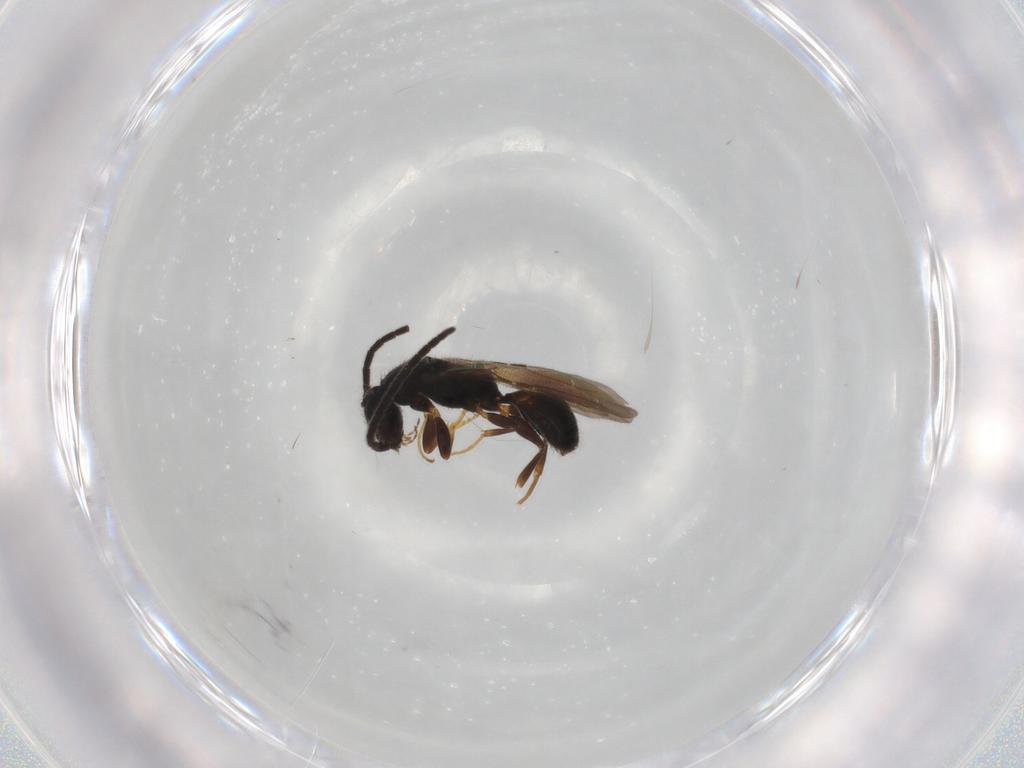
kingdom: Animalia
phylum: Arthropoda
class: Insecta
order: Hymenoptera
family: Bethylidae
